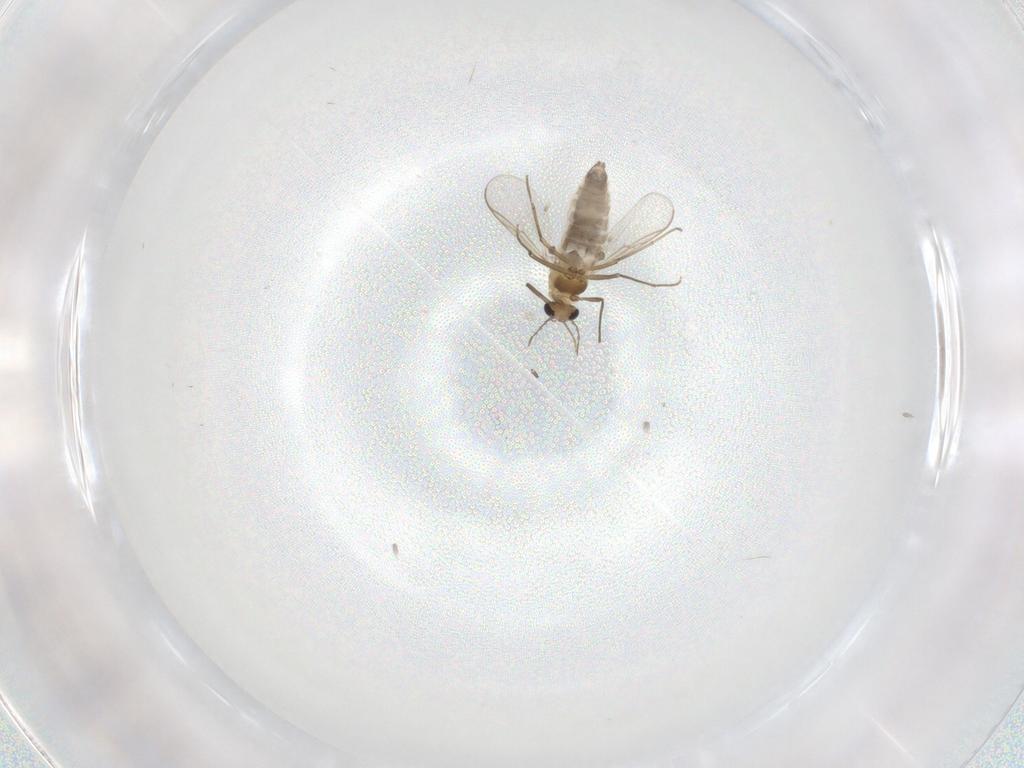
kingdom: Animalia
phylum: Arthropoda
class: Insecta
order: Diptera
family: Chironomidae
